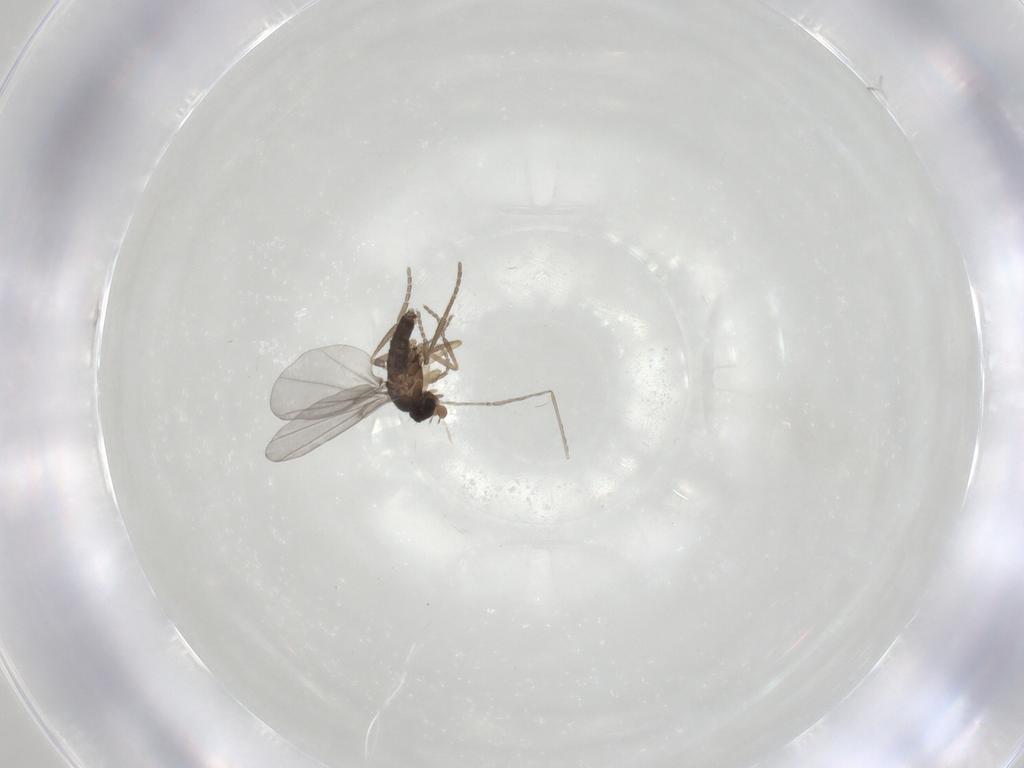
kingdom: Animalia
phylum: Arthropoda
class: Insecta
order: Diptera
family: Phoridae
